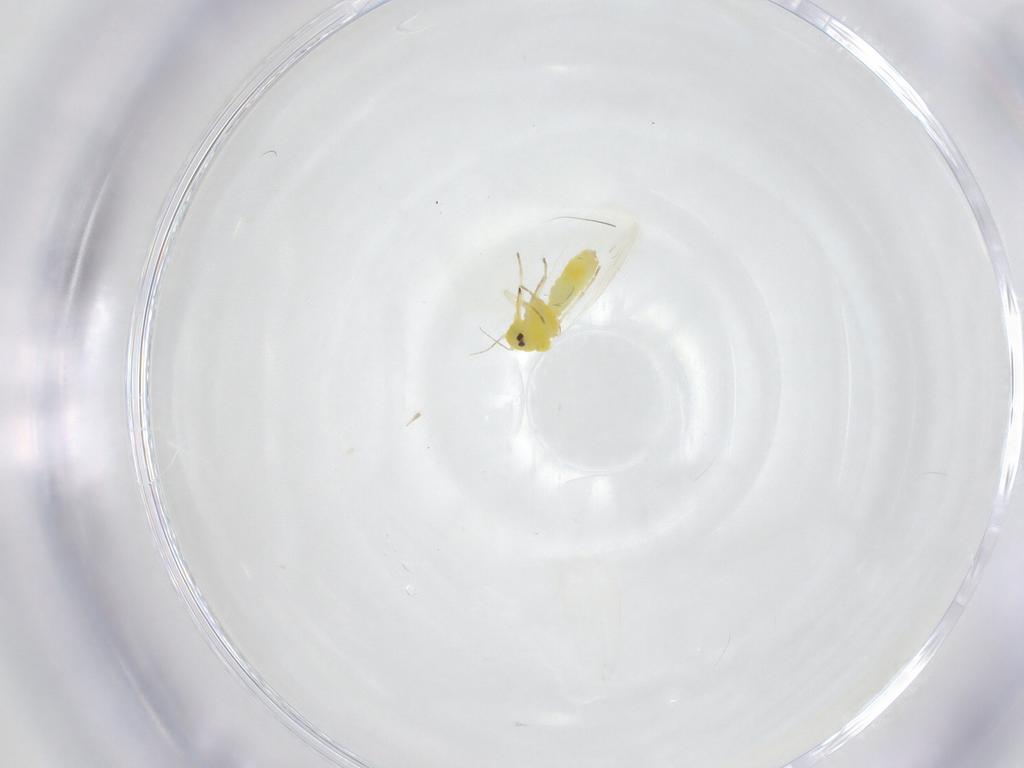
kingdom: Animalia
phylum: Arthropoda
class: Insecta
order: Hemiptera
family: Aleyrodidae
